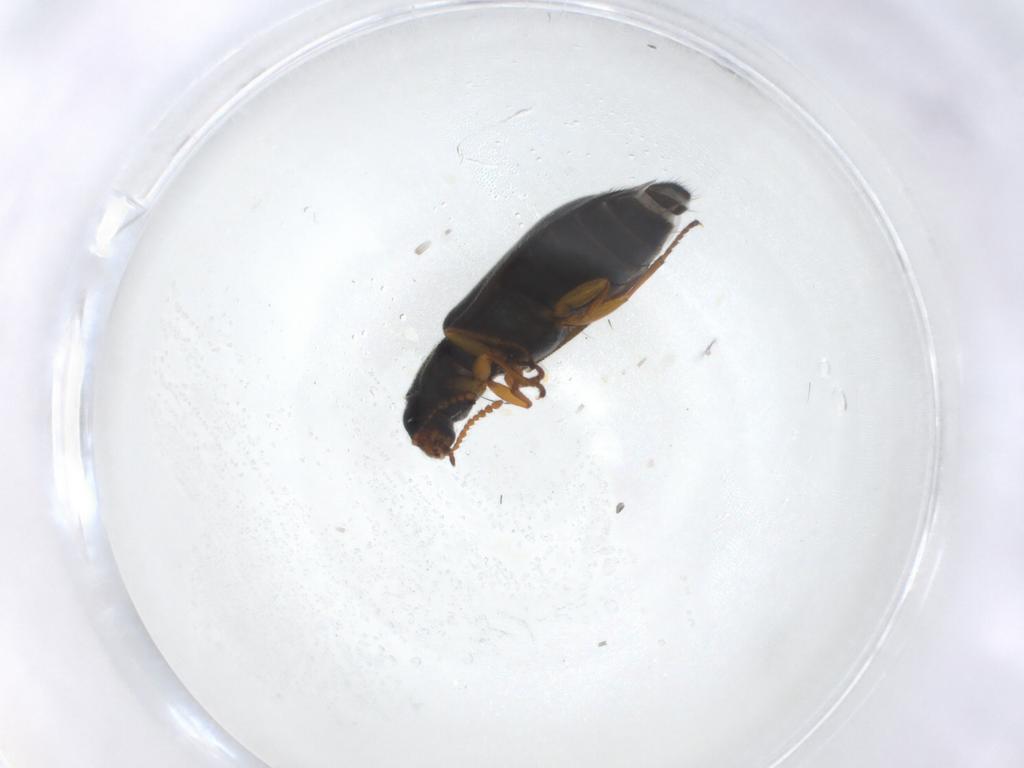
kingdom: Animalia
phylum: Arthropoda
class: Insecta
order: Coleoptera
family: Melyridae
